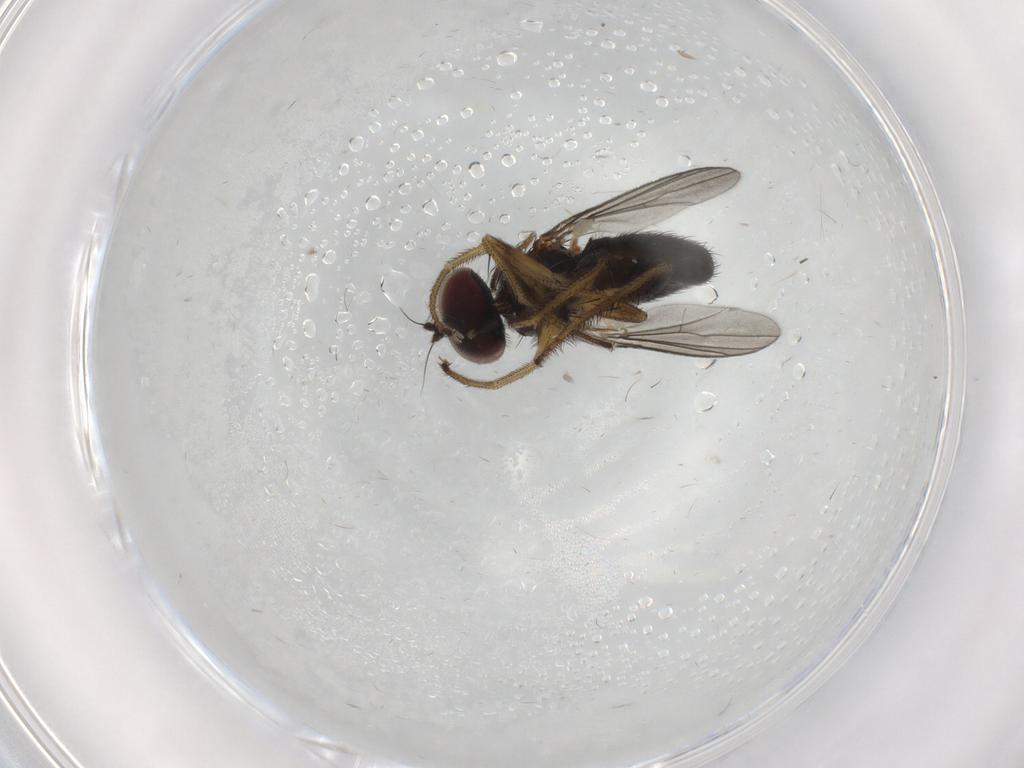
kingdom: Animalia
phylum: Arthropoda
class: Insecta
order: Diptera
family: Dolichopodidae
